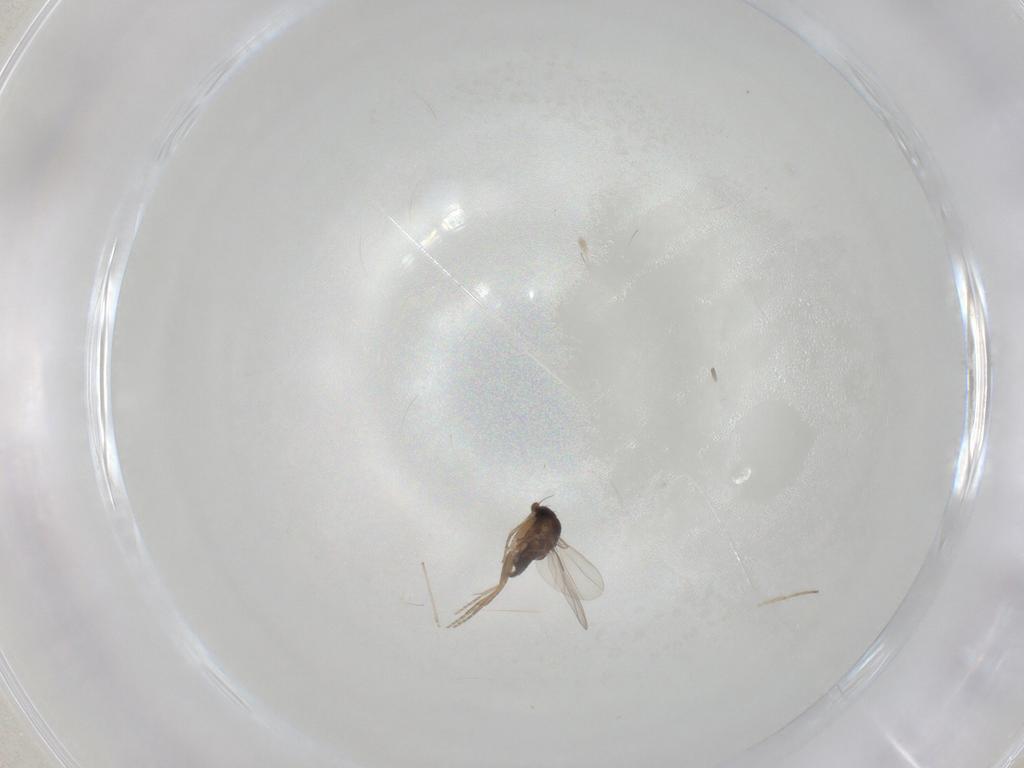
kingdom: Animalia
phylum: Arthropoda
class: Insecta
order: Diptera
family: Phoridae
